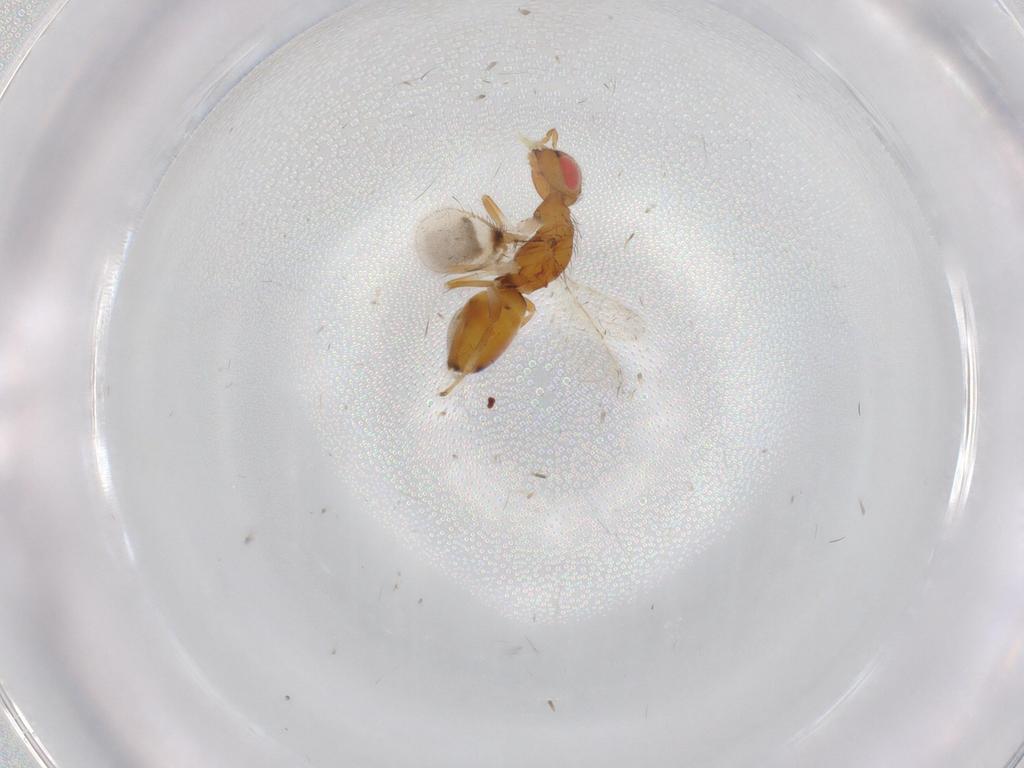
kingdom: Animalia
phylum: Arthropoda
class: Insecta
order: Hymenoptera
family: Eulophidae
